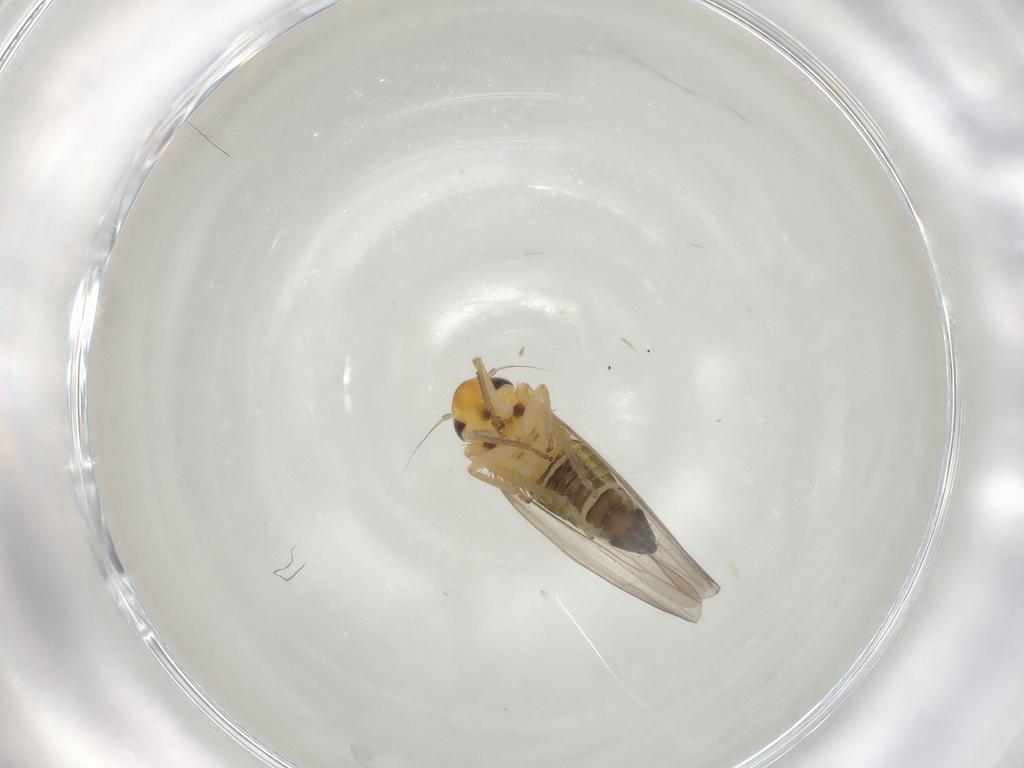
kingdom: Animalia
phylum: Arthropoda
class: Insecta
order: Hemiptera
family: Cicadellidae
